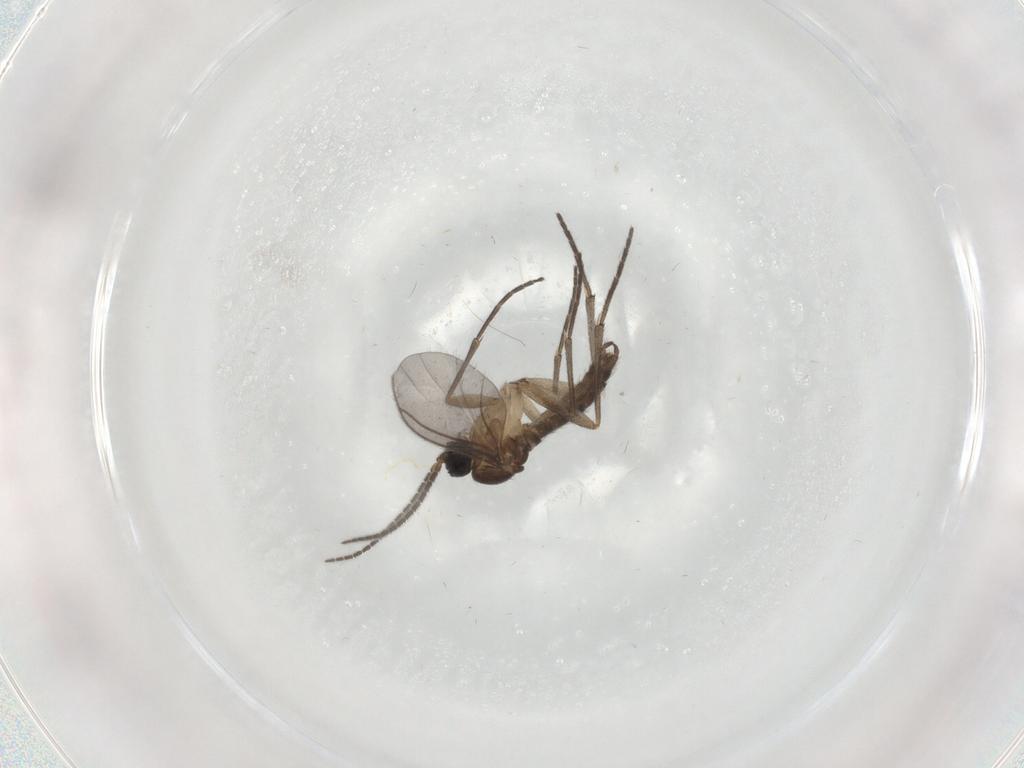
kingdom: Animalia
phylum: Arthropoda
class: Insecta
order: Diptera
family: Sciaridae
